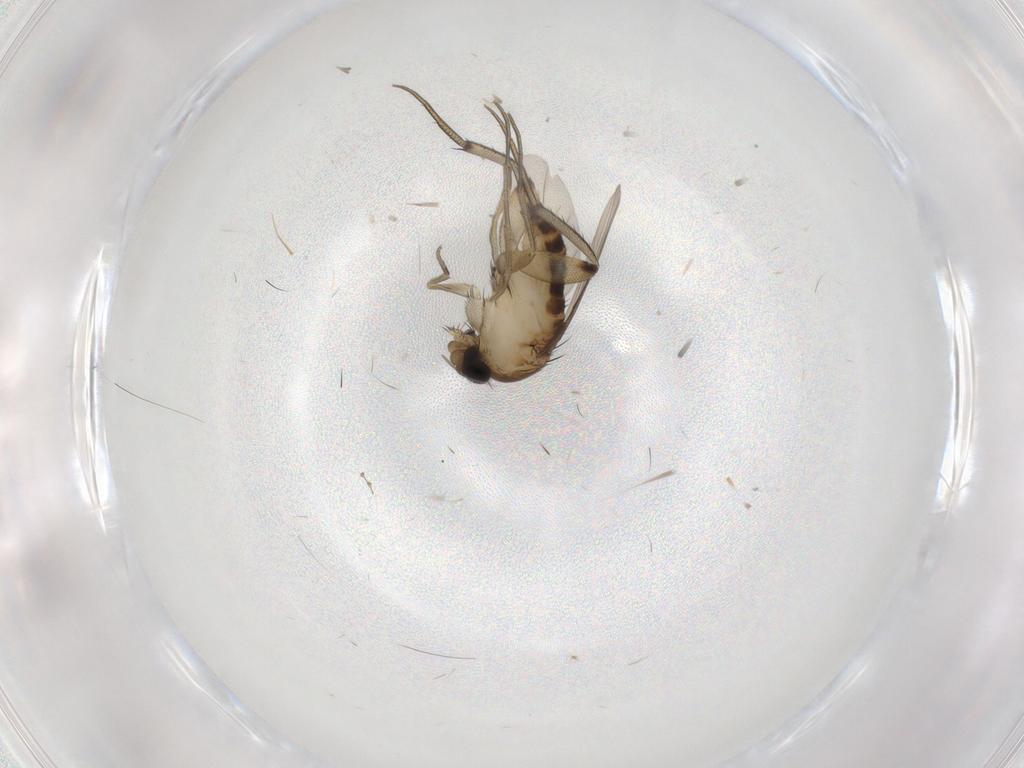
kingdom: Animalia
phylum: Arthropoda
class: Insecta
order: Diptera
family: Phoridae
